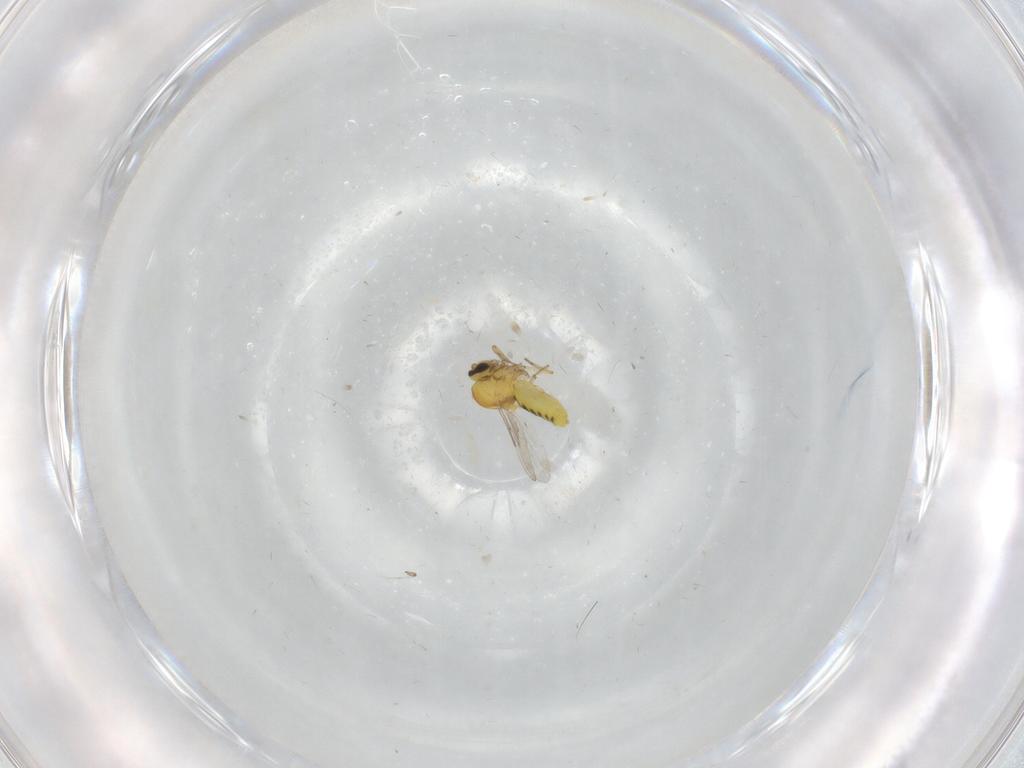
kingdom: Animalia
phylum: Arthropoda
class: Insecta
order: Diptera
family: Ceratopogonidae
